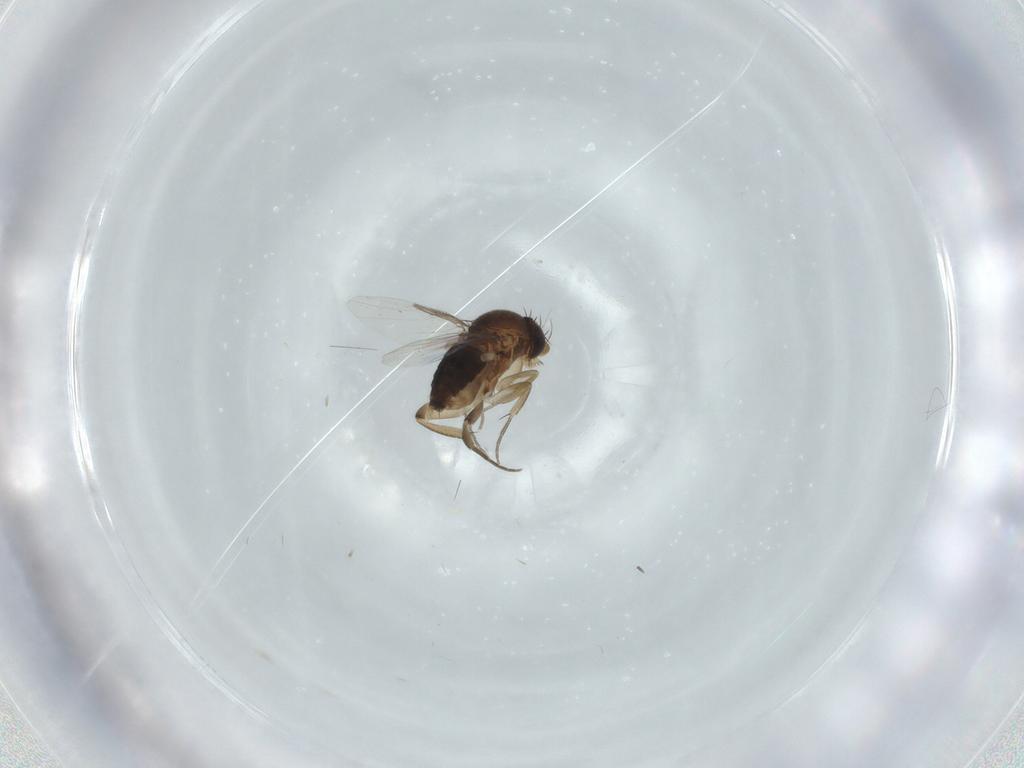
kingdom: Animalia
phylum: Arthropoda
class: Insecta
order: Diptera
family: Phoridae
